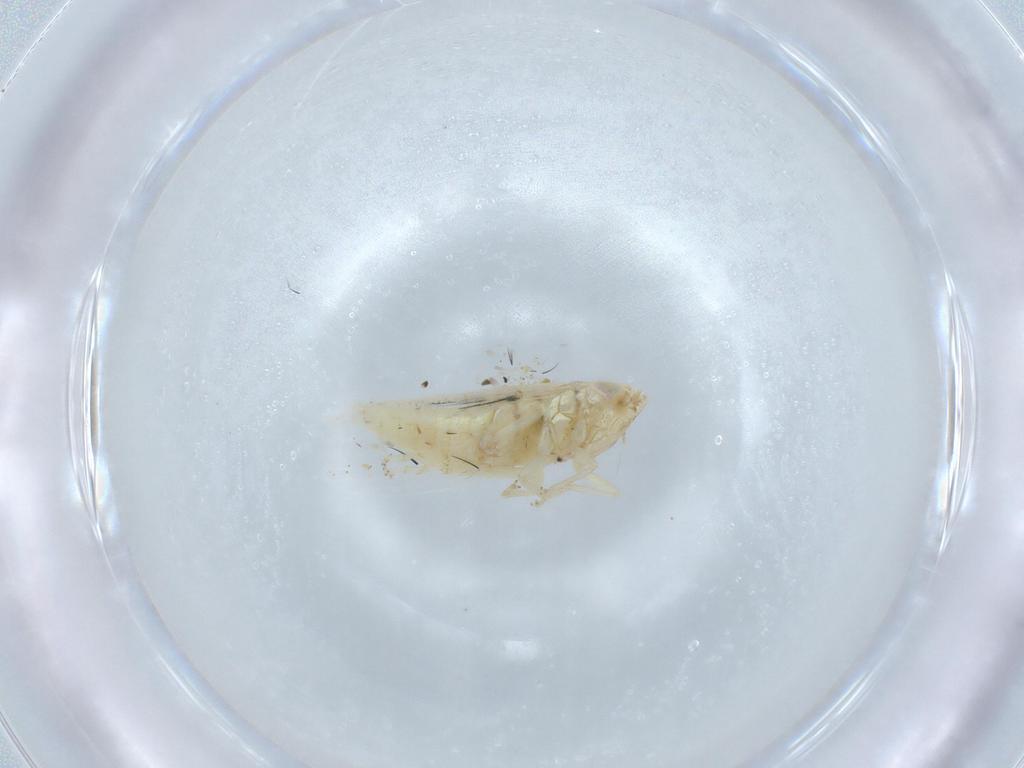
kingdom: Animalia
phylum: Arthropoda
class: Insecta
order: Hemiptera
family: Cicadellidae
